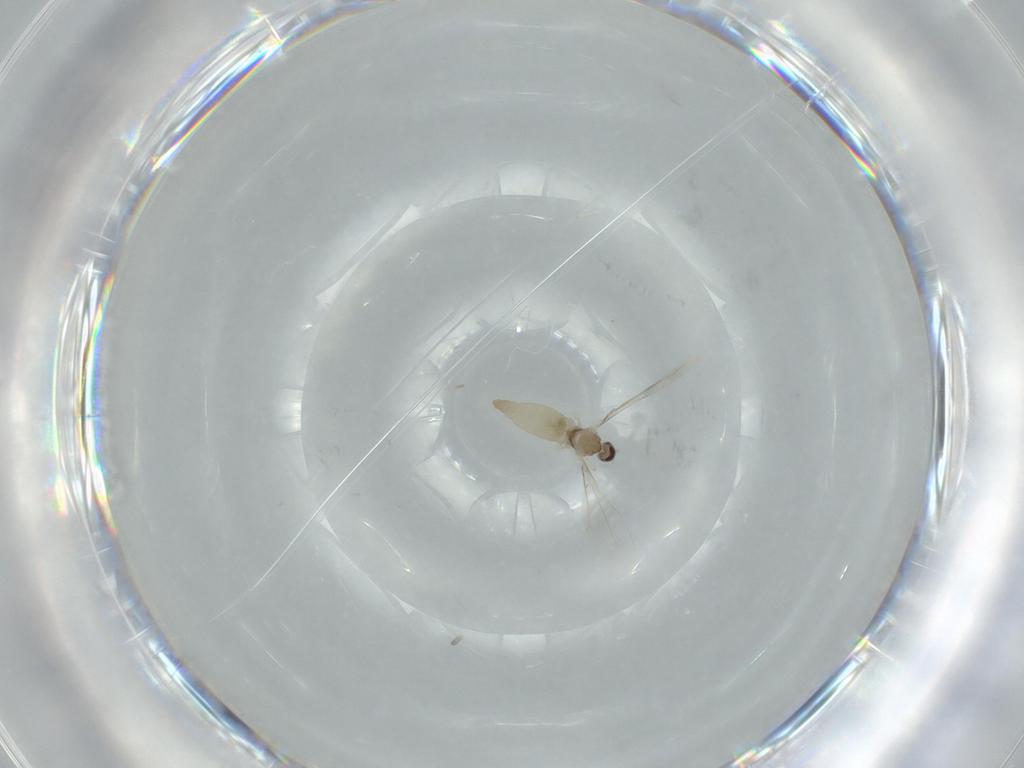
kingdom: Animalia
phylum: Arthropoda
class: Insecta
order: Diptera
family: Cecidomyiidae
